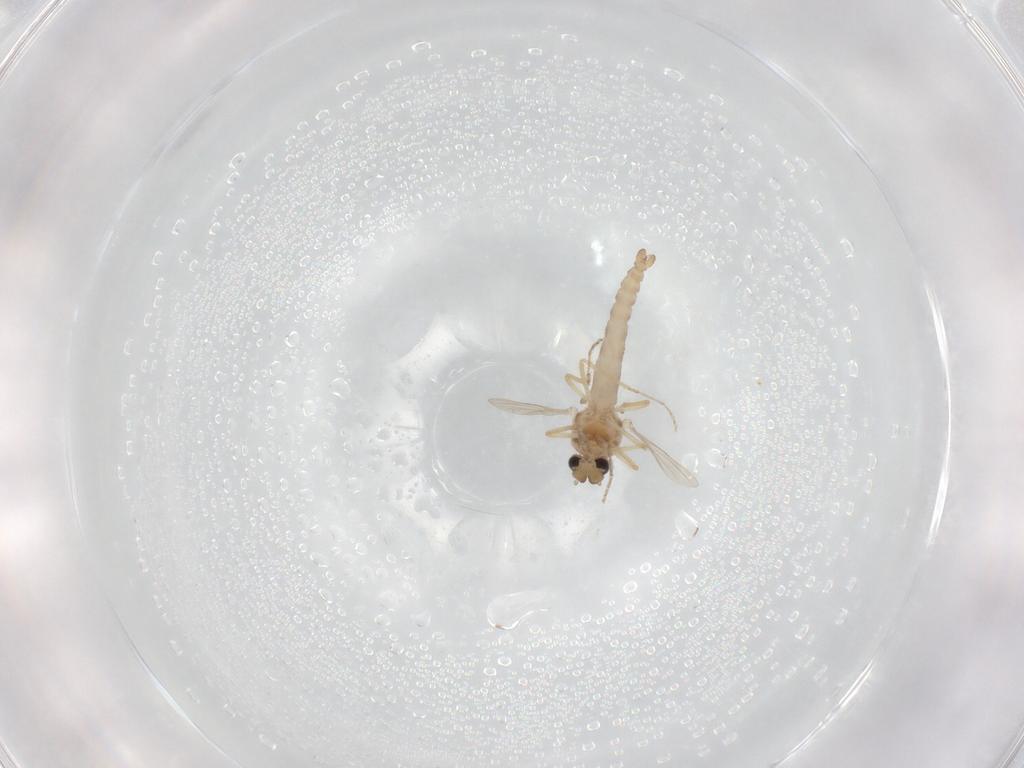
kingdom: Animalia
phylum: Arthropoda
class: Insecta
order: Diptera
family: Ceratopogonidae
